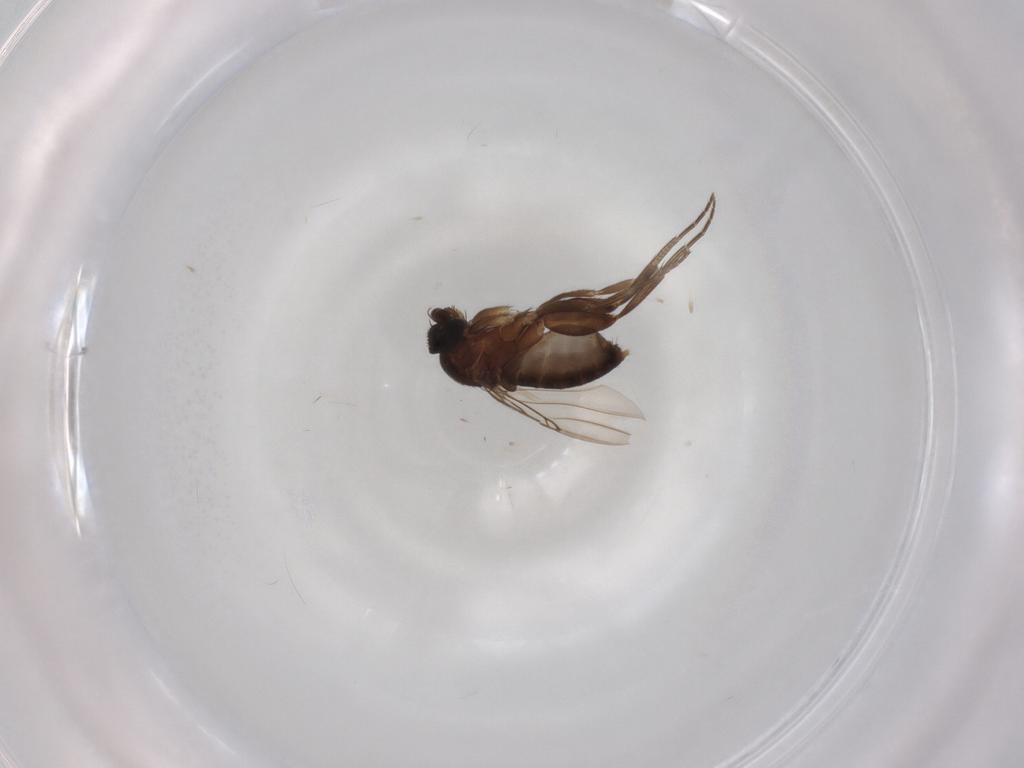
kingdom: Animalia
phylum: Arthropoda
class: Insecta
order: Diptera
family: Phoridae
